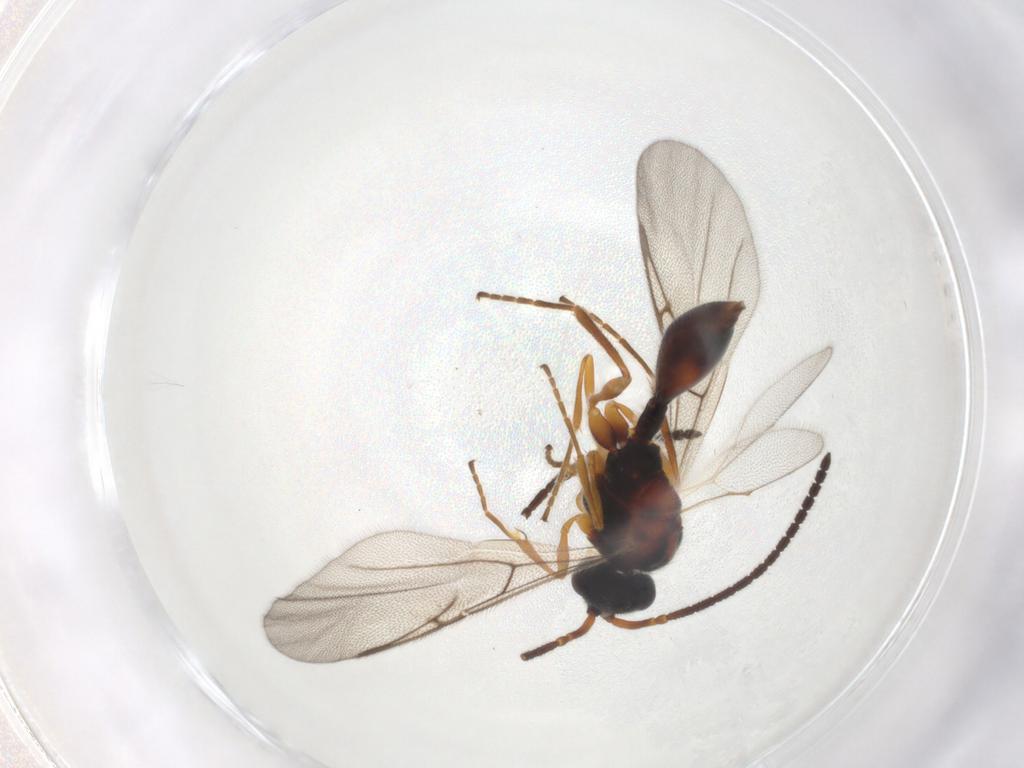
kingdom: Animalia
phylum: Arthropoda
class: Insecta
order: Hymenoptera
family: Diapriidae
